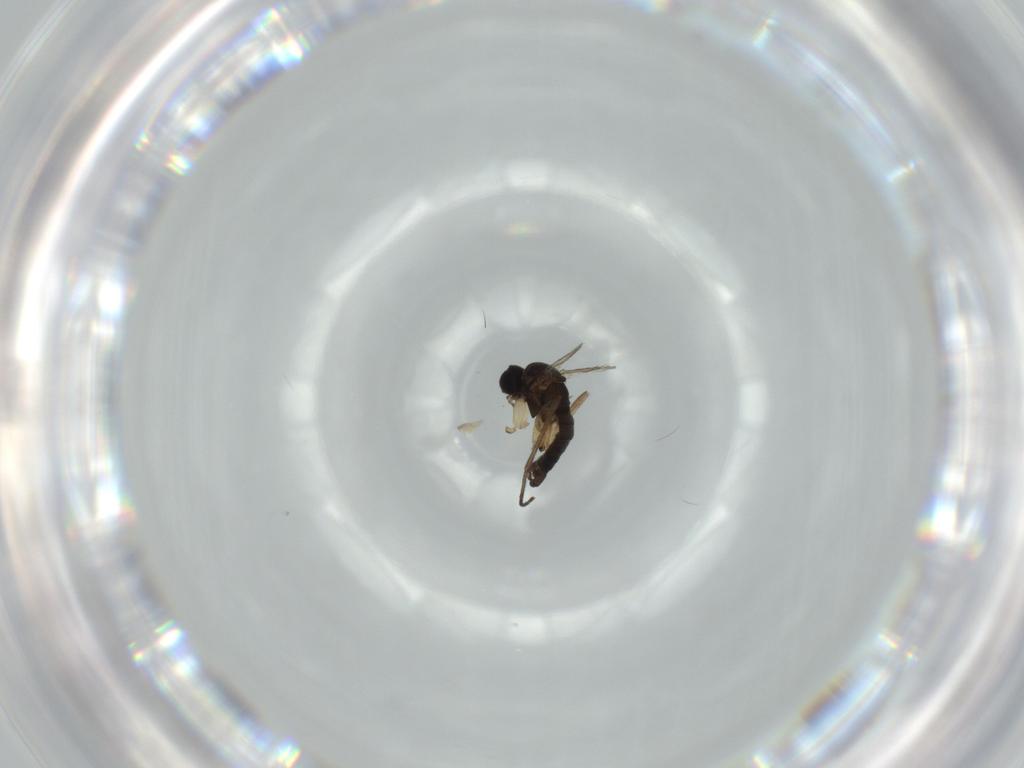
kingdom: Animalia
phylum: Arthropoda
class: Insecta
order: Diptera
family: Sciaridae
